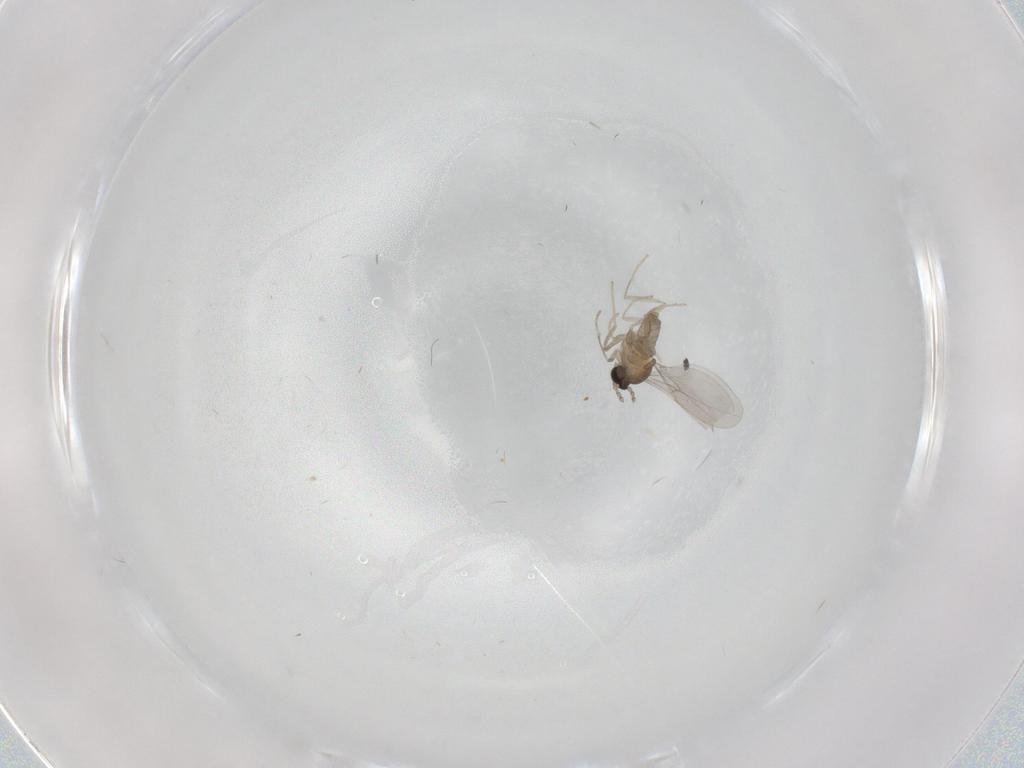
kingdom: Animalia
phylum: Arthropoda
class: Insecta
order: Diptera
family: Cecidomyiidae
